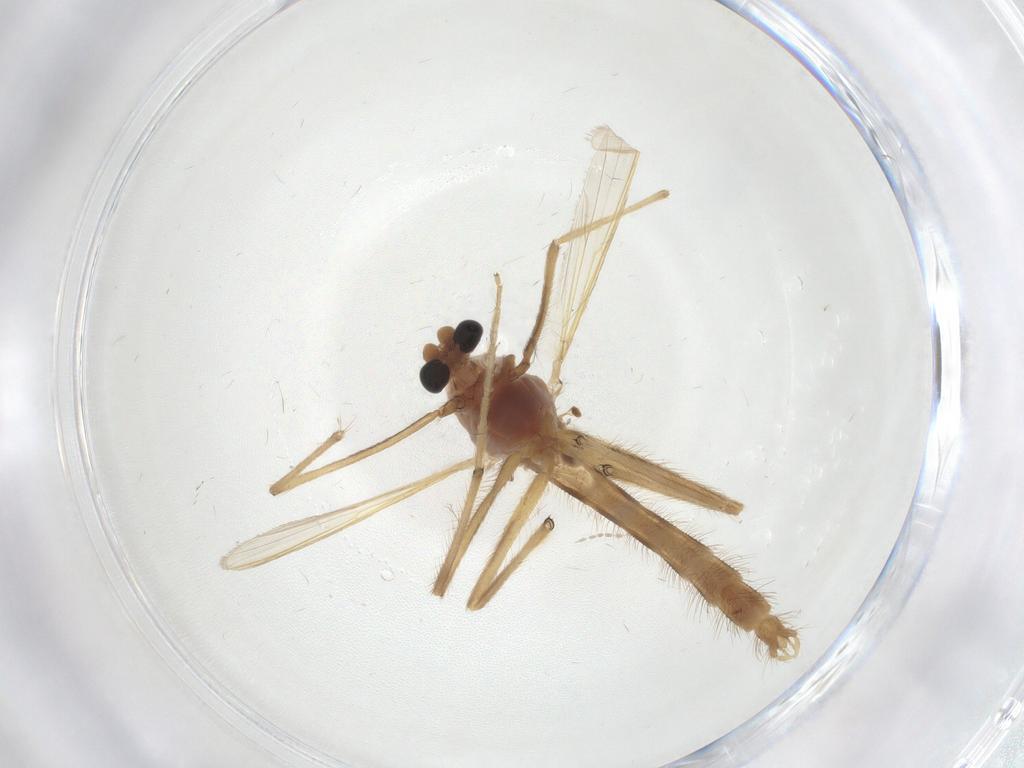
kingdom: Animalia
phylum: Arthropoda
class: Insecta
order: Diptera
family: Chironomidae
